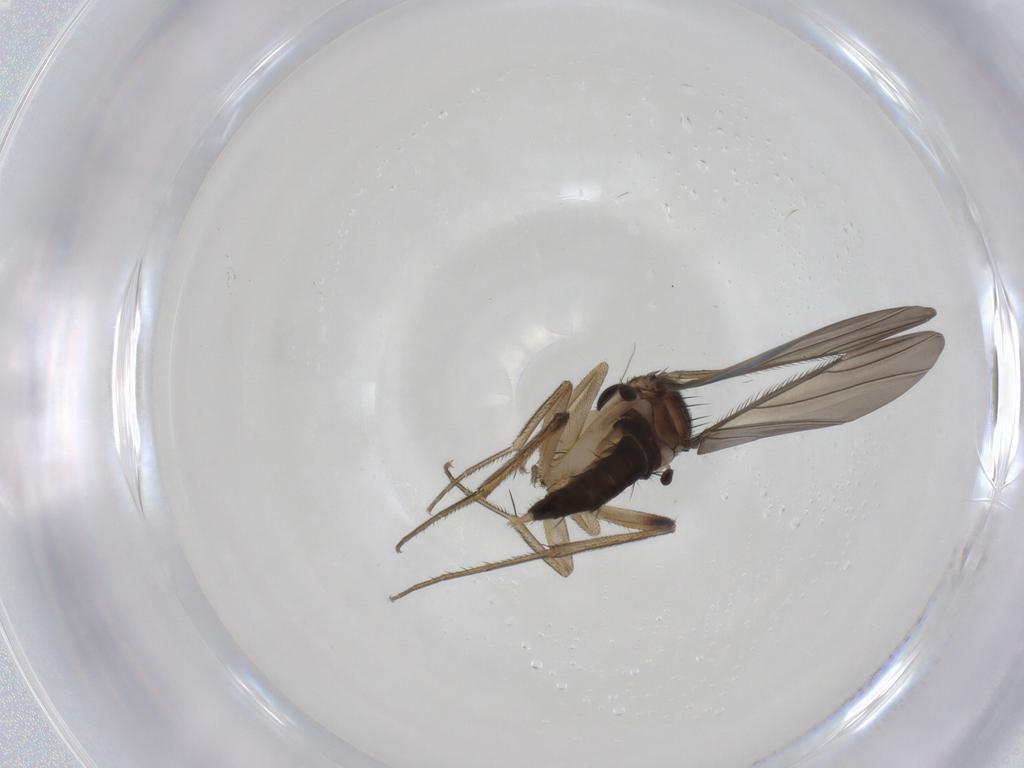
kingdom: Animalia
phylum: Arthropoda
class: Insecta
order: Diptera
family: Phoridae
